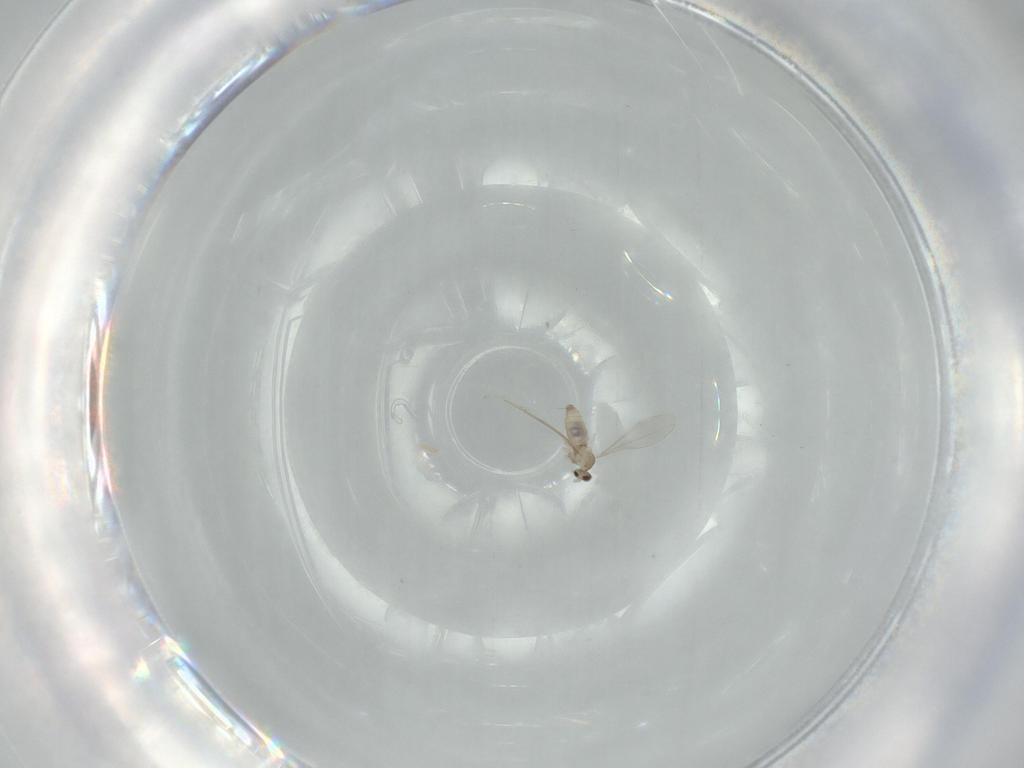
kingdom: Animalia
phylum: Arthropoda
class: Insecta
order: Diptera
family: Cecidomyiidae
